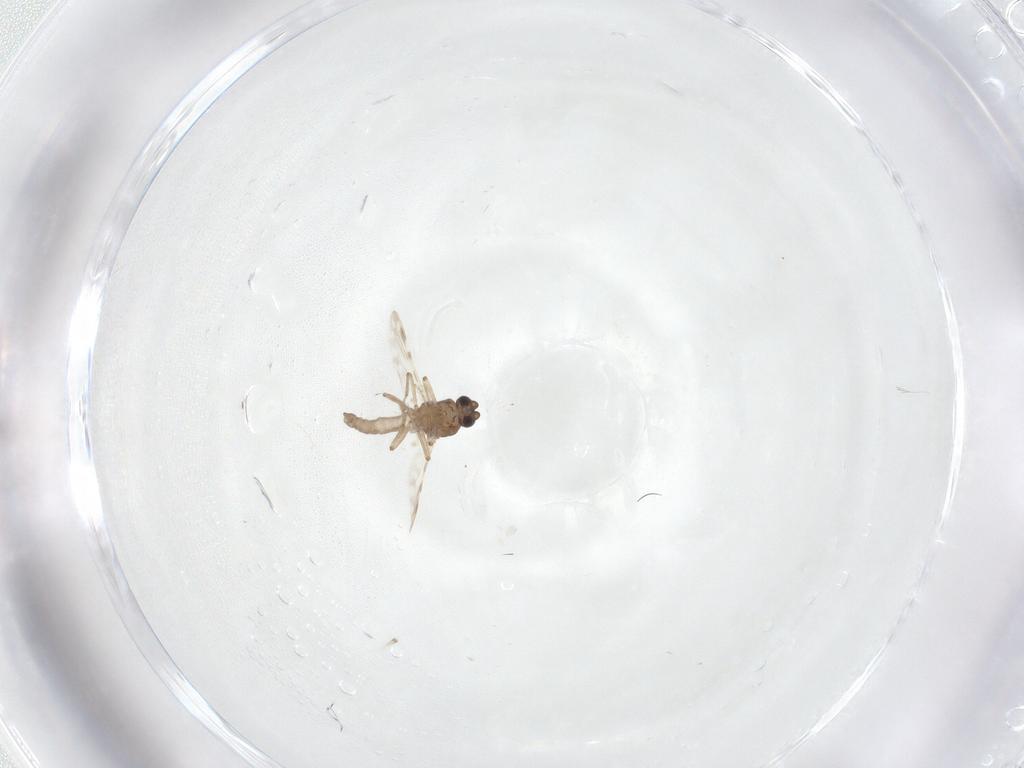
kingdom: Animalia
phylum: Arthropoda
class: Insecta
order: Diptera
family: Ceratopogonidae
